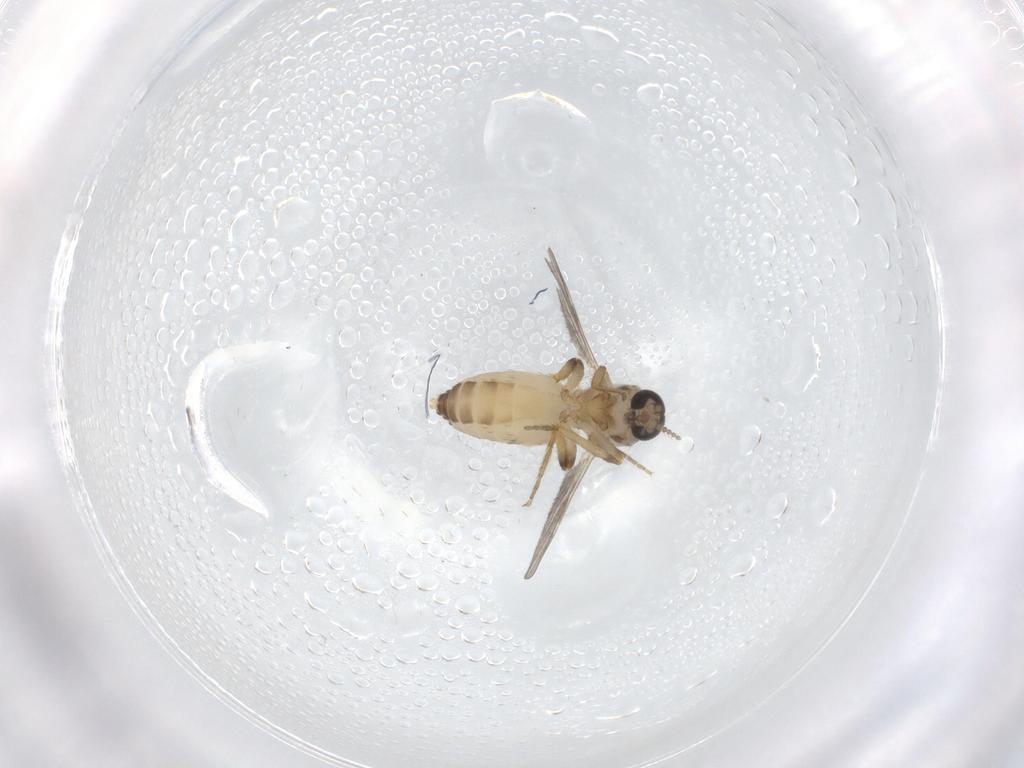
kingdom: Animalia
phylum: Arthropoda
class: Insecta
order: Diptera
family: Ceratopogonidae
